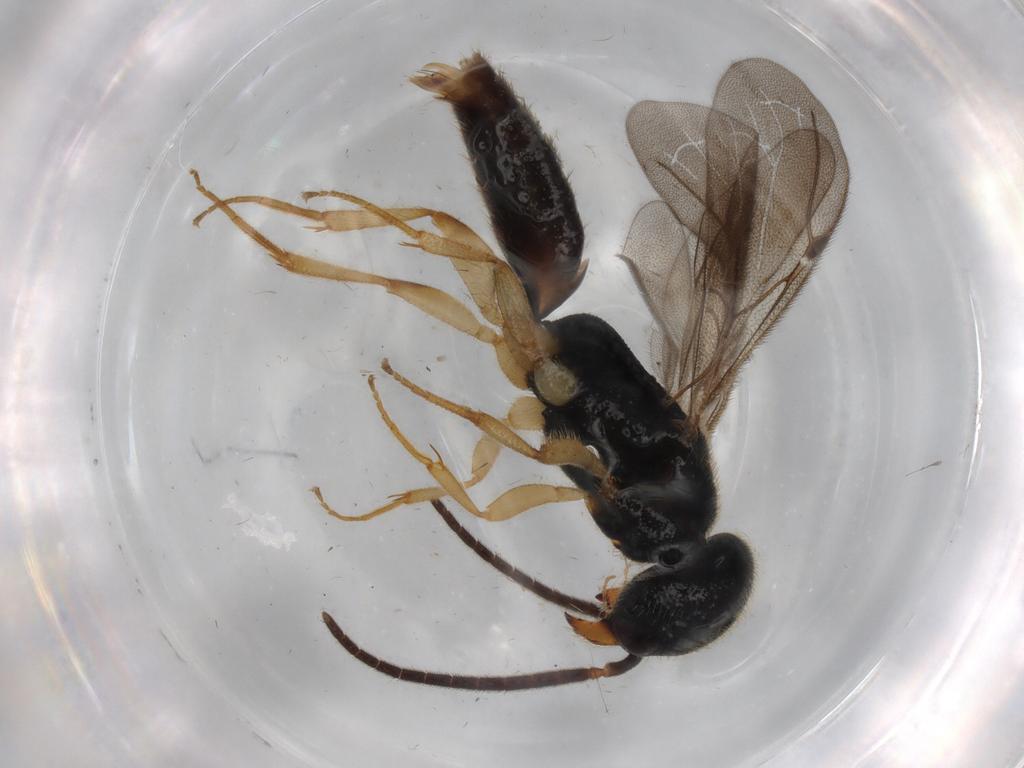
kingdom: Animalia
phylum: Arthropoda
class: Insecta
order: Hymenoptera
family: Bethylidae
